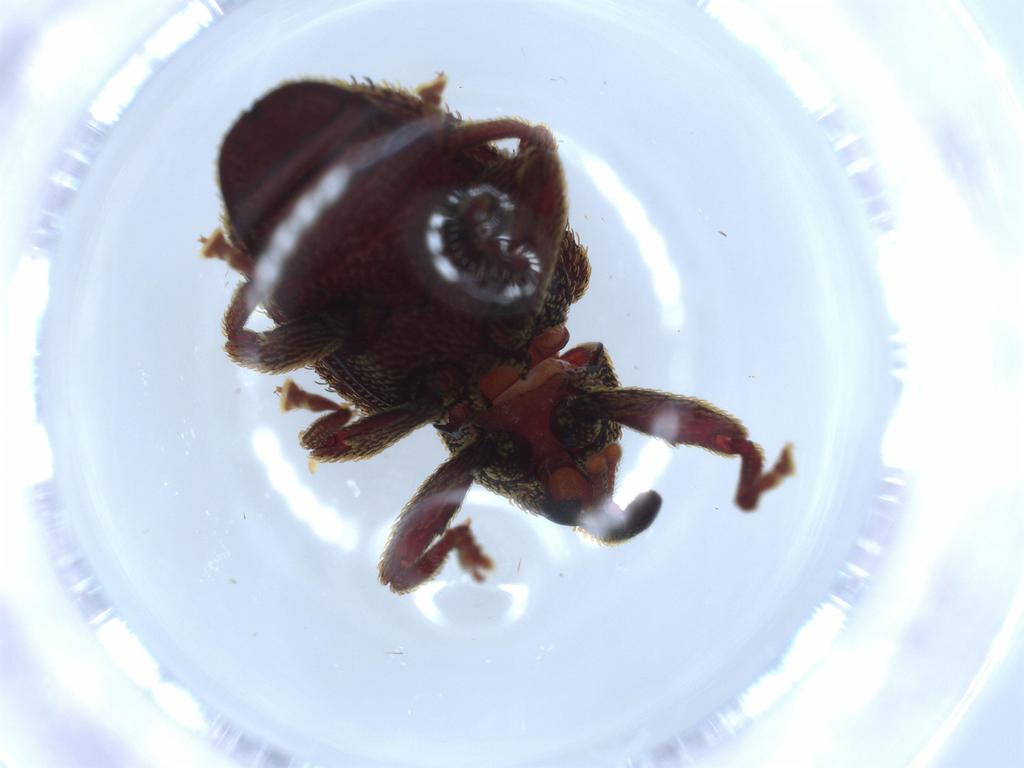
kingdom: Animalia
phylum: Arthropoda
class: Insecta
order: Coleoptera
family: Curculionidae
